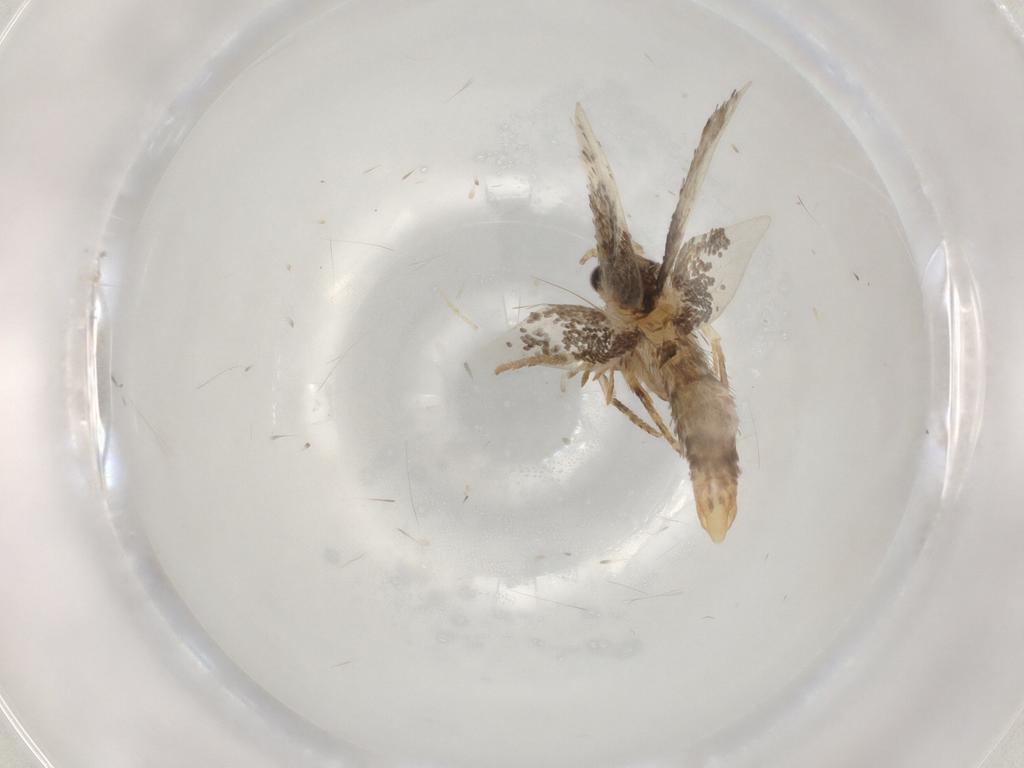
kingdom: Animalia
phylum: Arthropoda
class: Insecta
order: Lepidoptera
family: Tineidae
